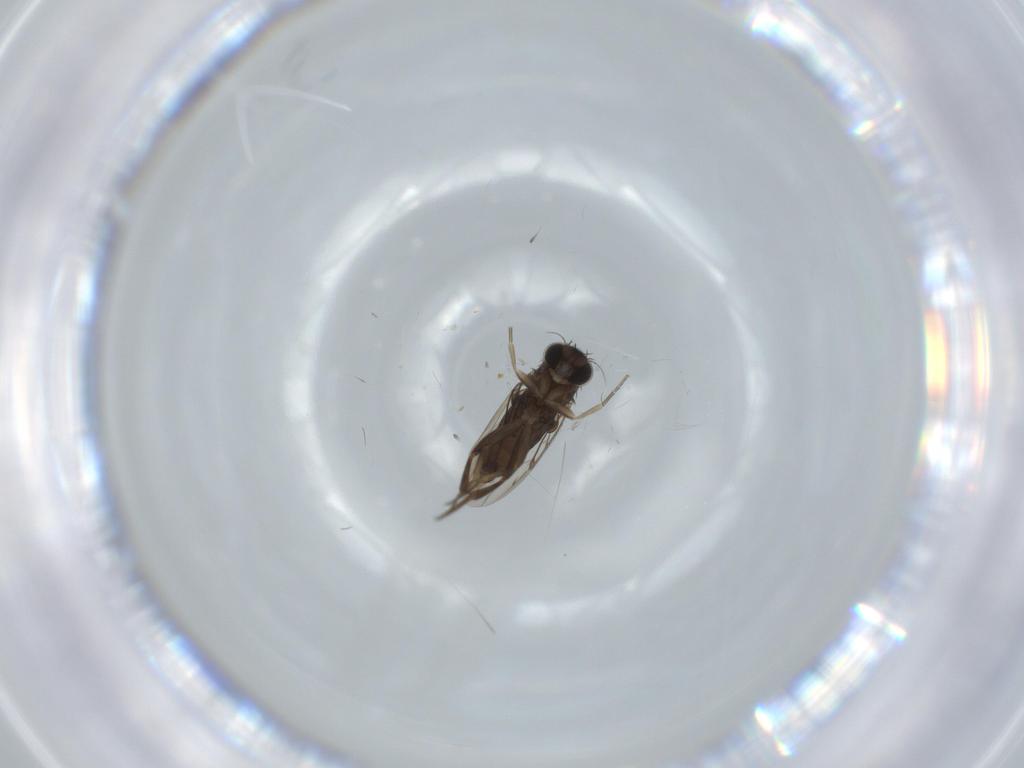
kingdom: Animalia
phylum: Arthropoda
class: Insecta
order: Diptera
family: Phoridae
